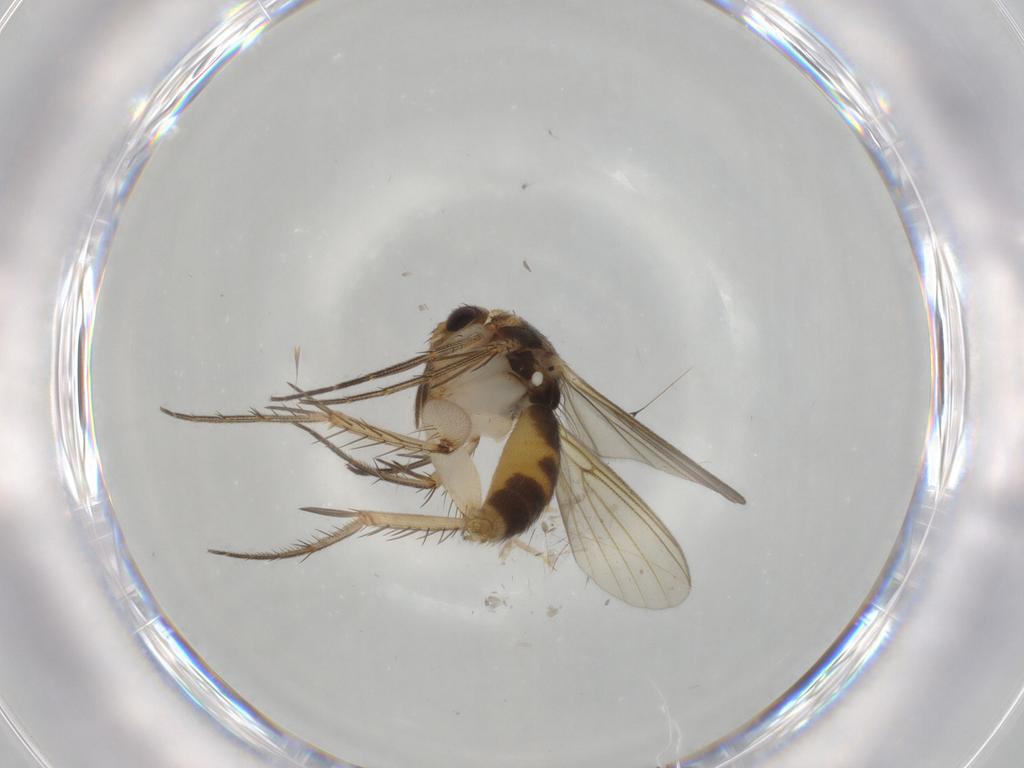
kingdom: Animalia
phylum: Arthropoda
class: Insecta
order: Diptera
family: Mycetophilidae
